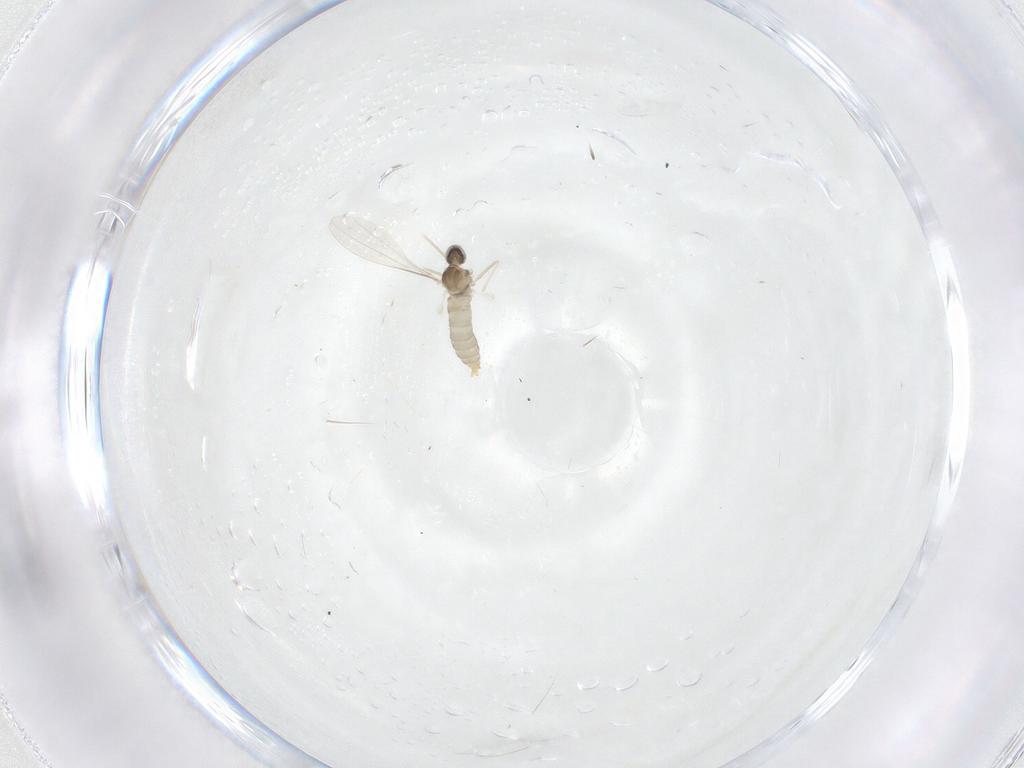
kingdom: Animalia
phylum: Arthropoda
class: Insecta
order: Diptera
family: Cecidomyiidae
